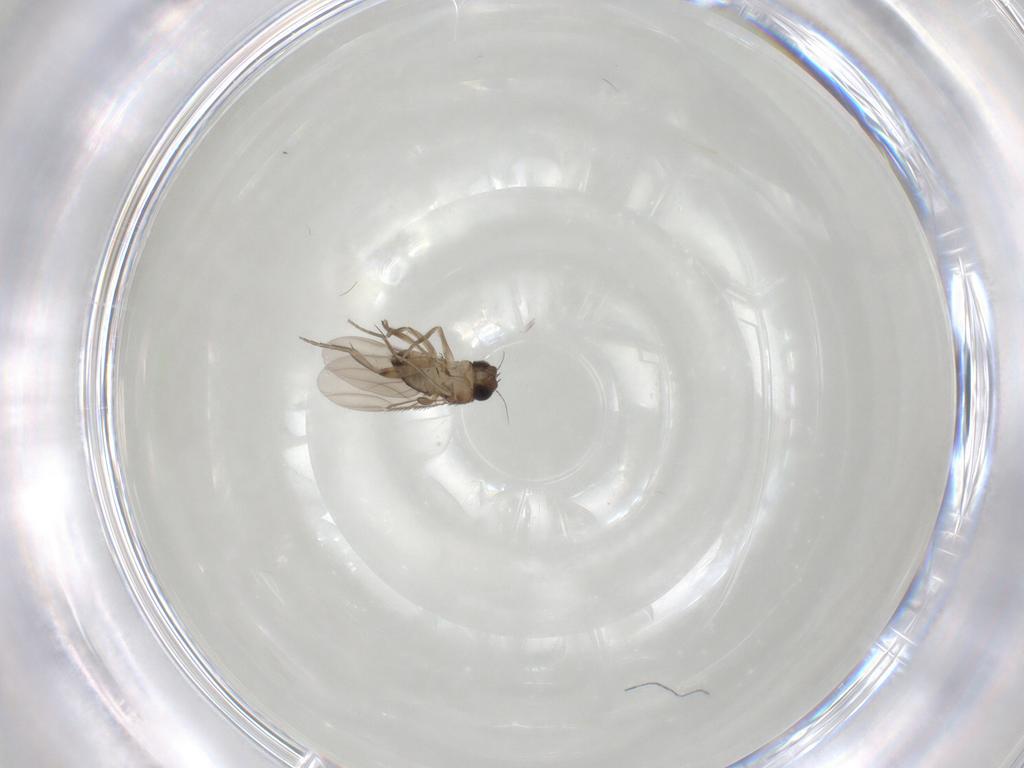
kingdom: Animalia
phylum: Arthropoda
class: Insecta
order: Diptera
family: Phoridae
